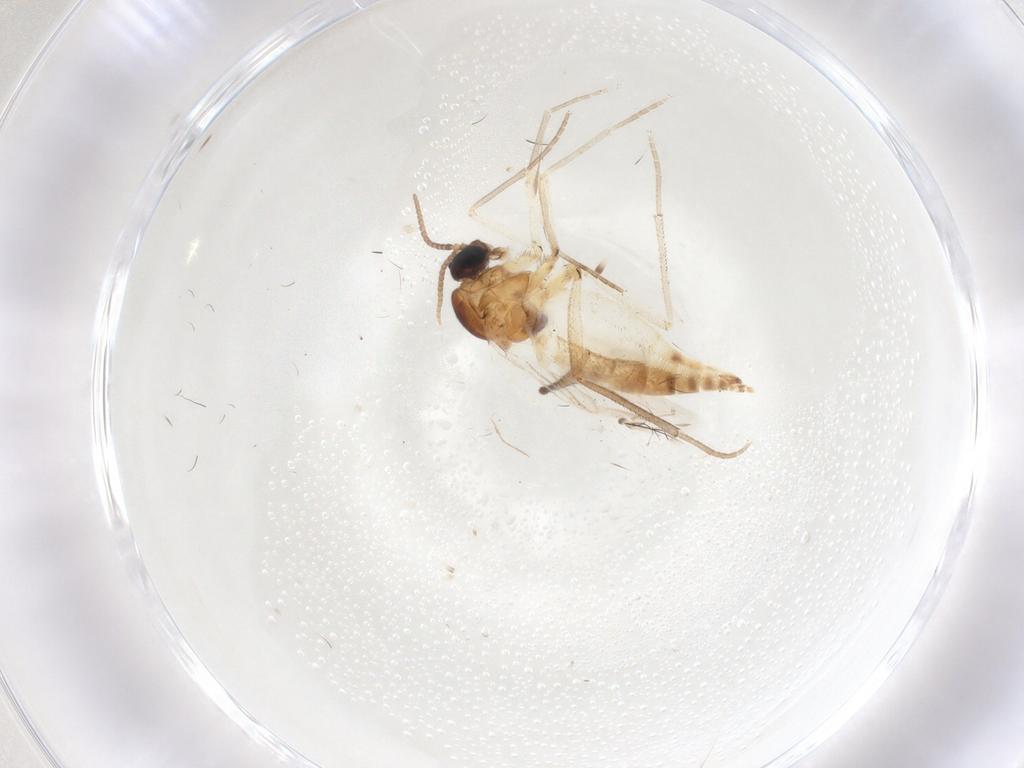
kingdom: Animalia
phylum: Arthropoda
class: Insecta
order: Diptera
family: Sciaridae
